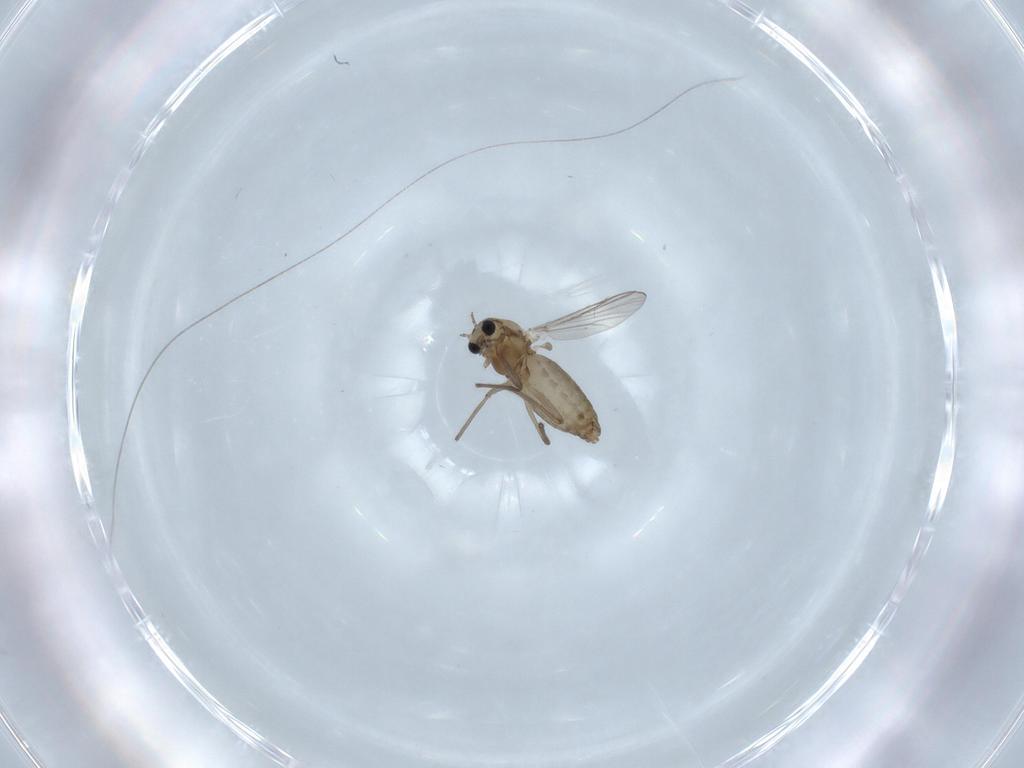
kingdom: Animalia
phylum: Arthropoda
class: Insecta
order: Diptera
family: Chironomidae
